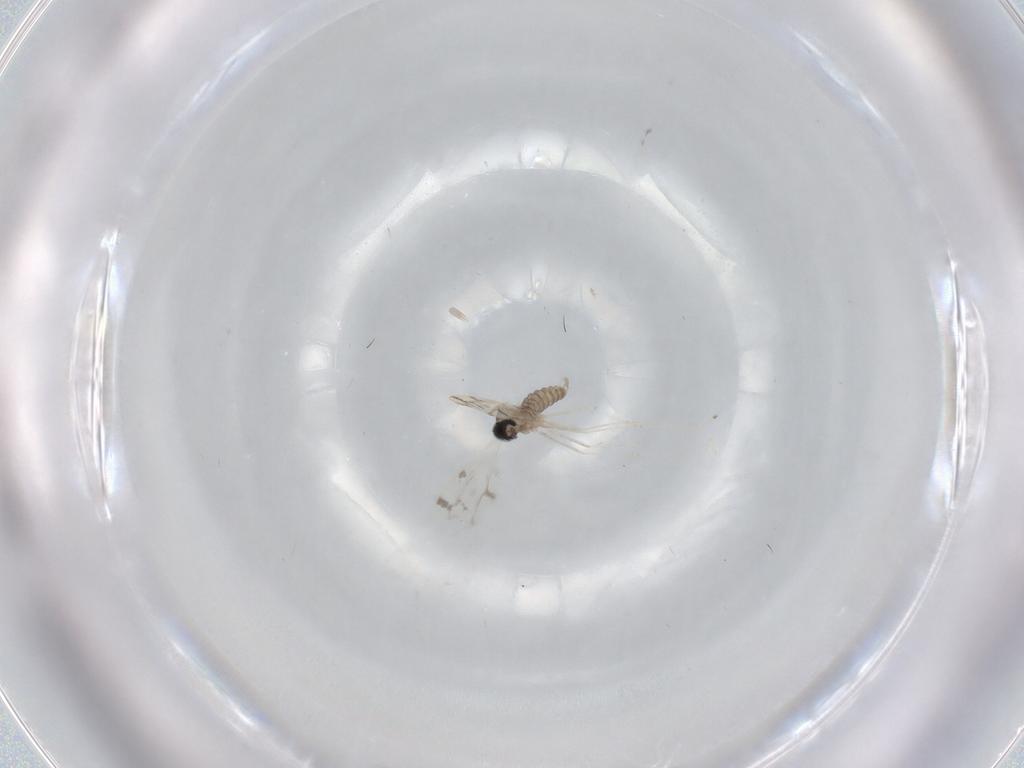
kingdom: Animalia
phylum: Arthropoda
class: Insecta
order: Diptera
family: Cecidomyiidae
